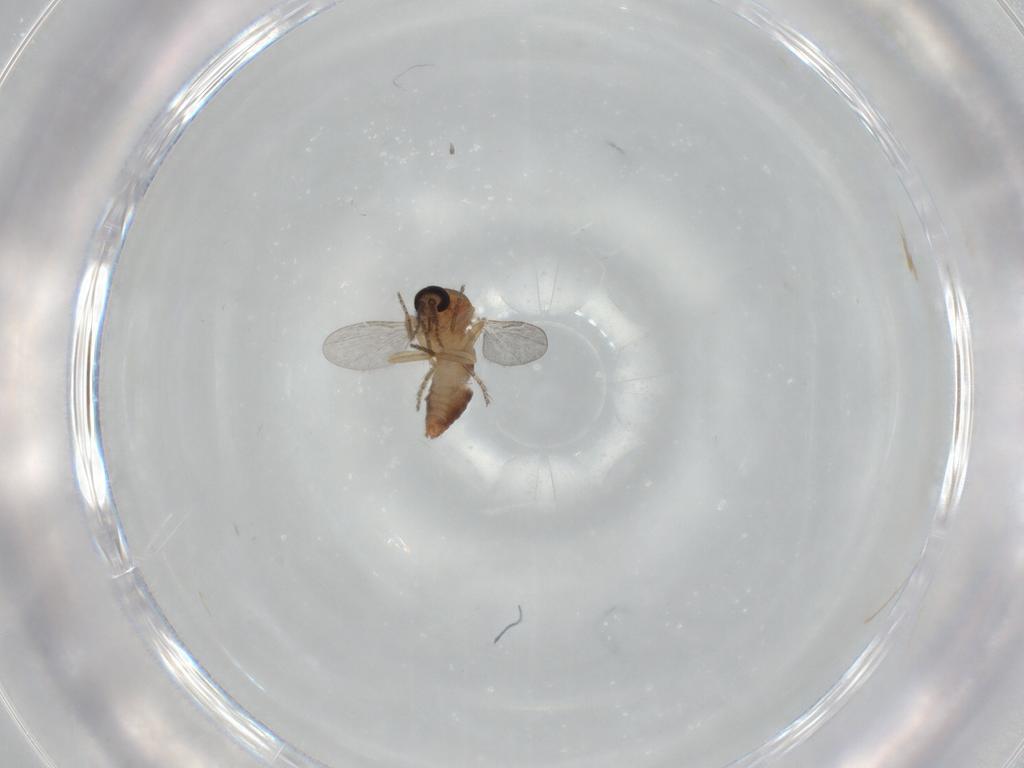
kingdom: Animalia
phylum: Arthropoda
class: Insecta
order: Diptera
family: Ceratopogonidae
